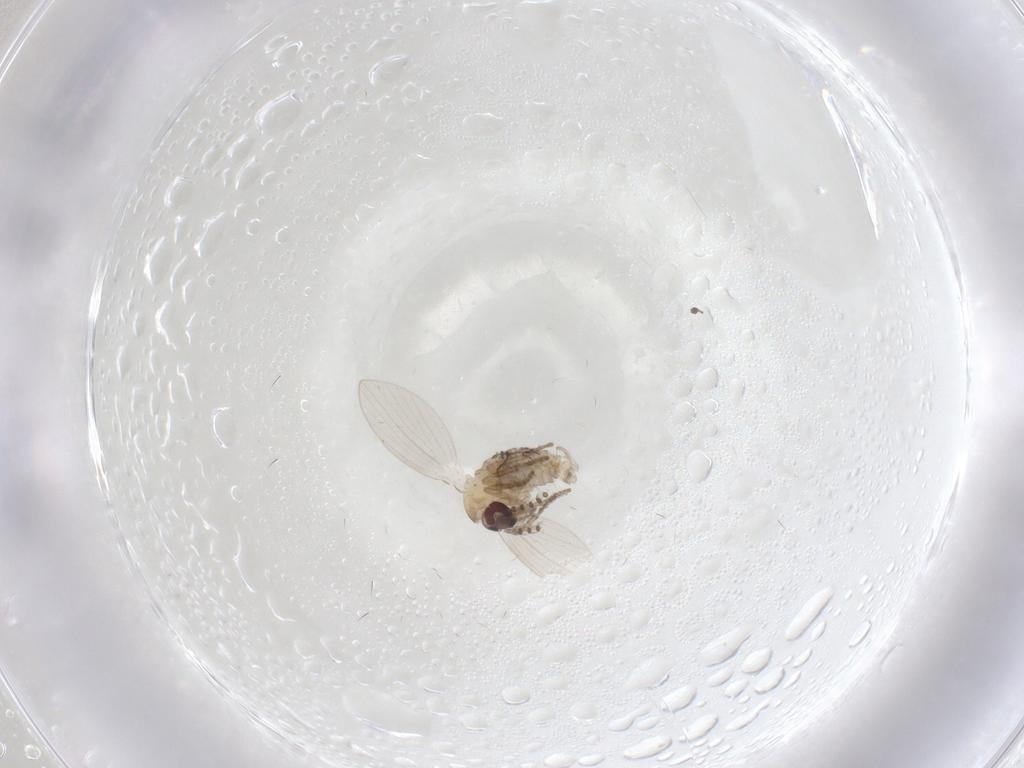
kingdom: Animalia
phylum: Arthropoda
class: Insecta
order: Diptera
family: Psychodidae
